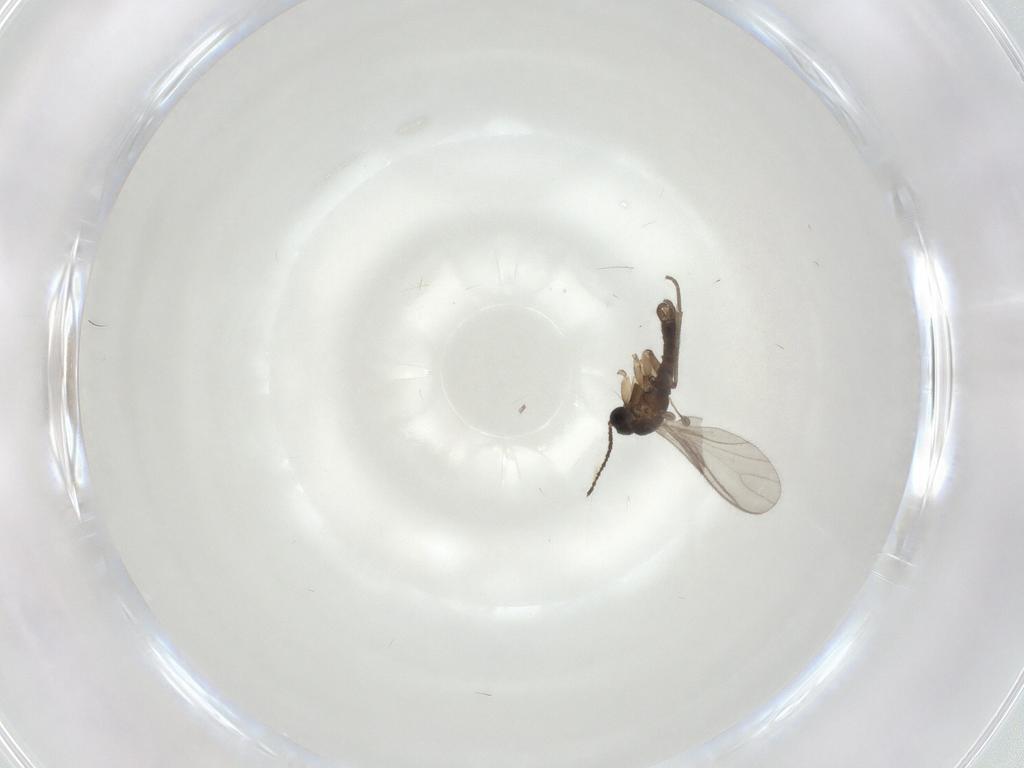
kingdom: Animalia
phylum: Arthropoda
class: Insecta
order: Diptera
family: Sciaridae
